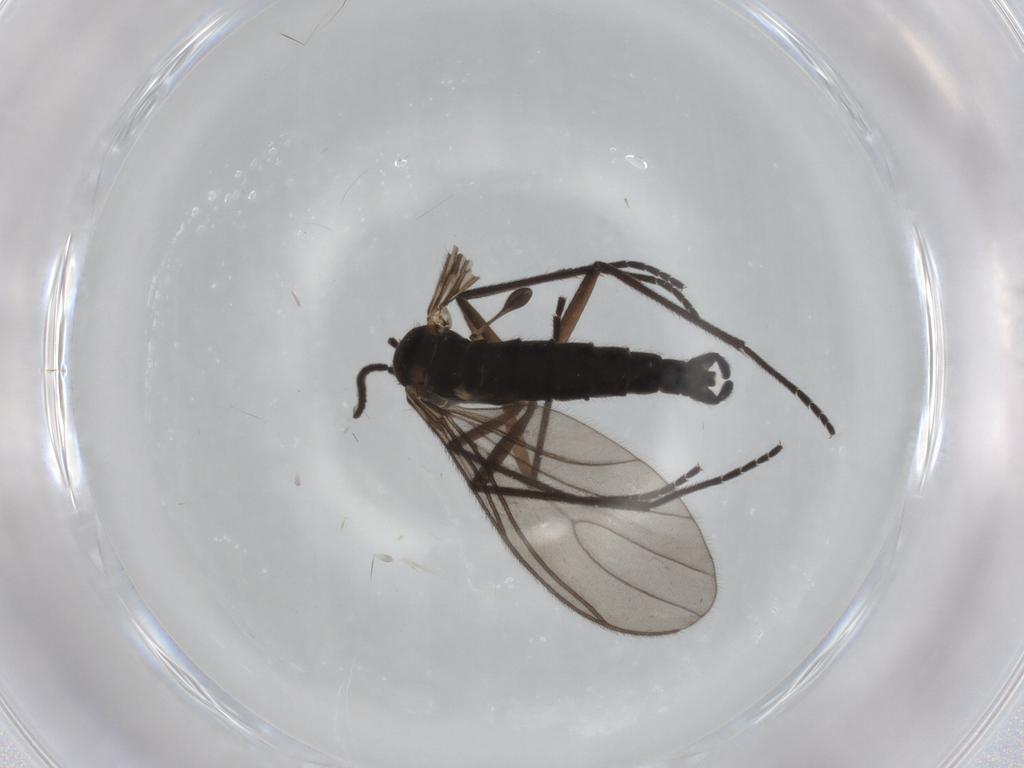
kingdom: Animalia
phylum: Arthropoda
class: Insecta
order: Diptera
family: Sciaridae
